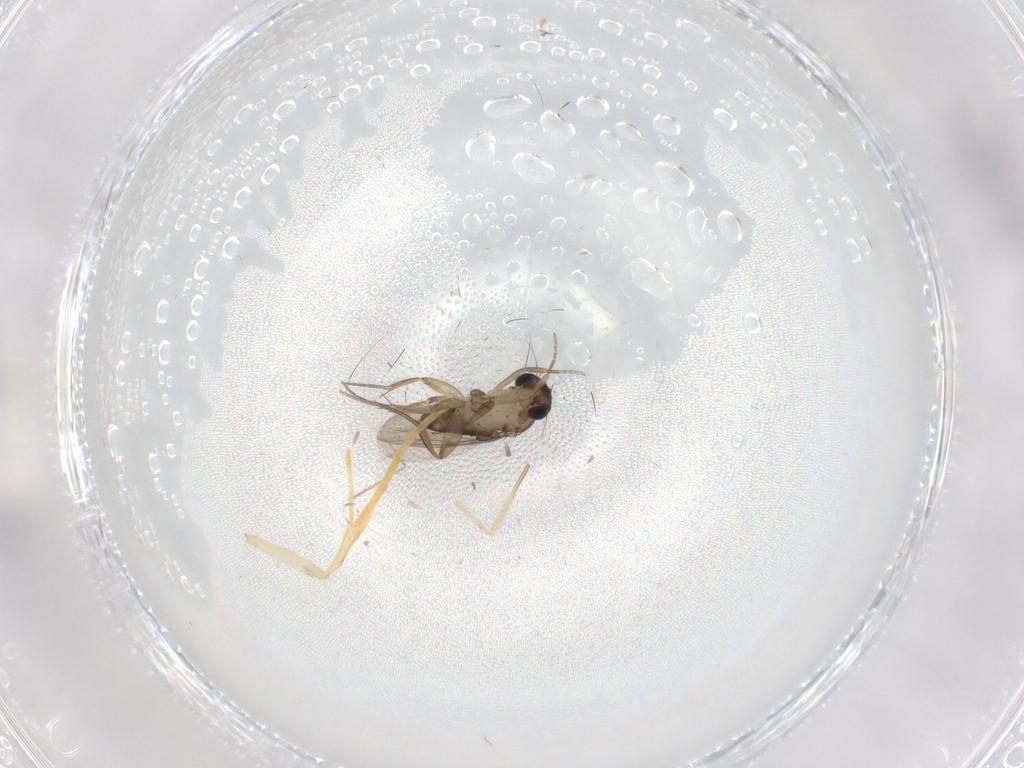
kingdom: Animalia
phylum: Arthropoda
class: Insecta
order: Diptera
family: Chironomidae
